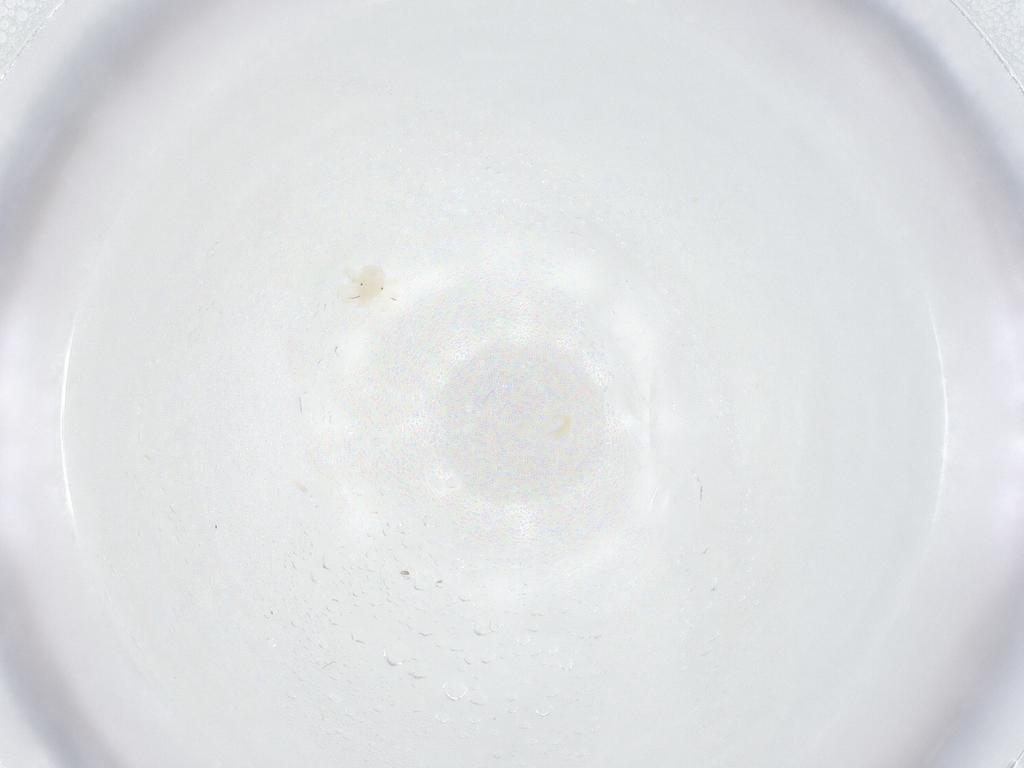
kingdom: Animalia
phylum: Arthropoda
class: Arachnida
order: Trombidiformes
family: Anystidae
